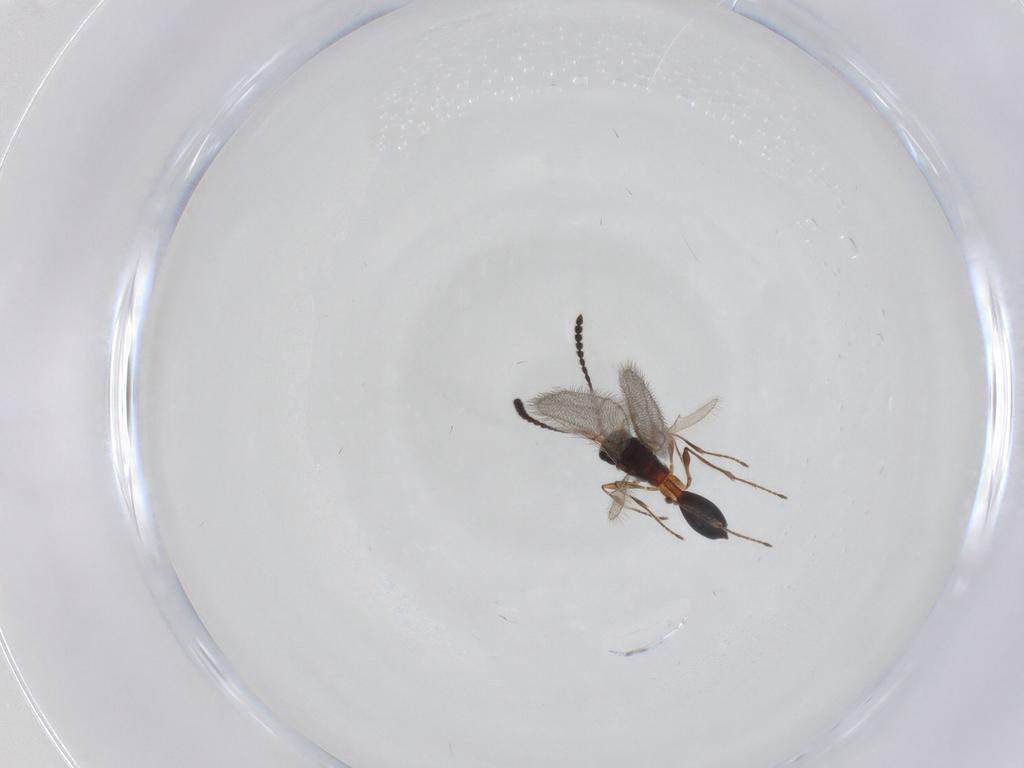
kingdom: Animalia
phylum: Arthropoda
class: Insecta
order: Hymenoptera
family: Diapriidae
